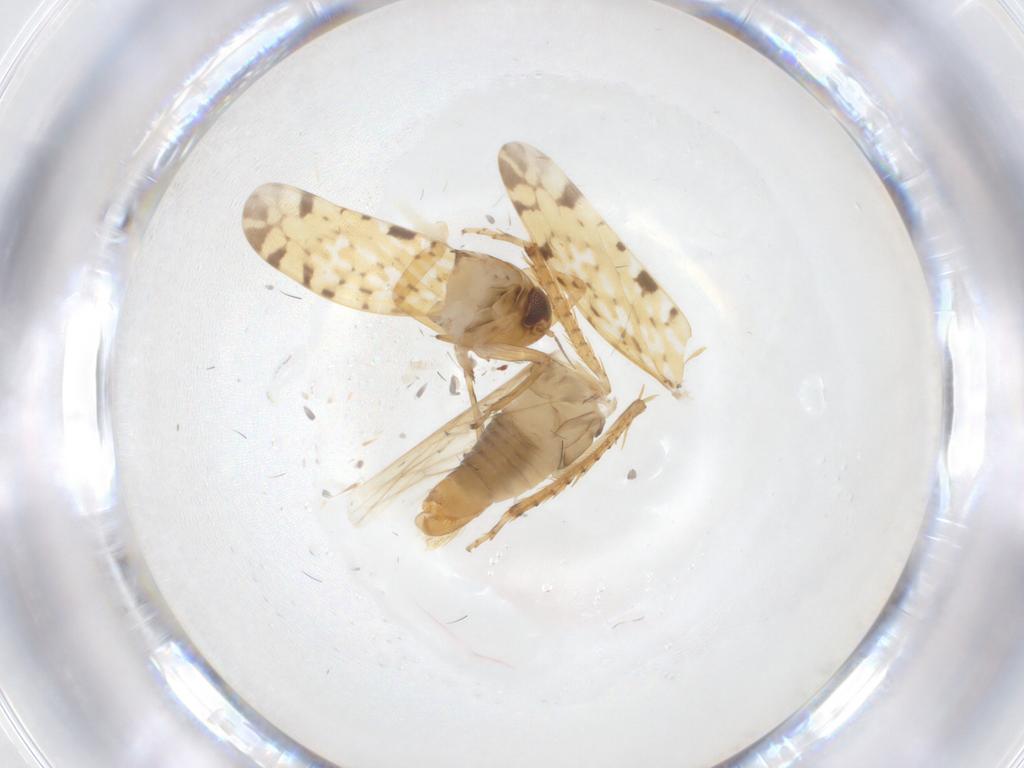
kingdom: Animalia
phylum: Arthropoda
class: Insecta
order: Hemiptera
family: Cicadellidae
